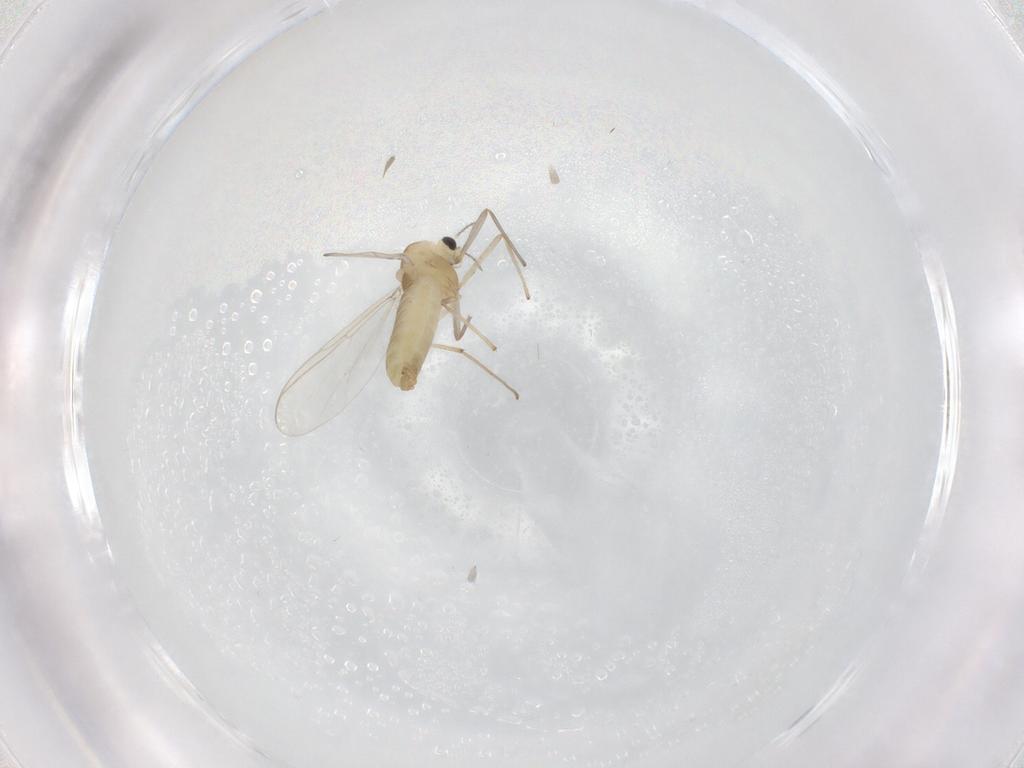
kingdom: Animalia
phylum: Arthropoda
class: Insecta
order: Diptera
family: Chironomidae
